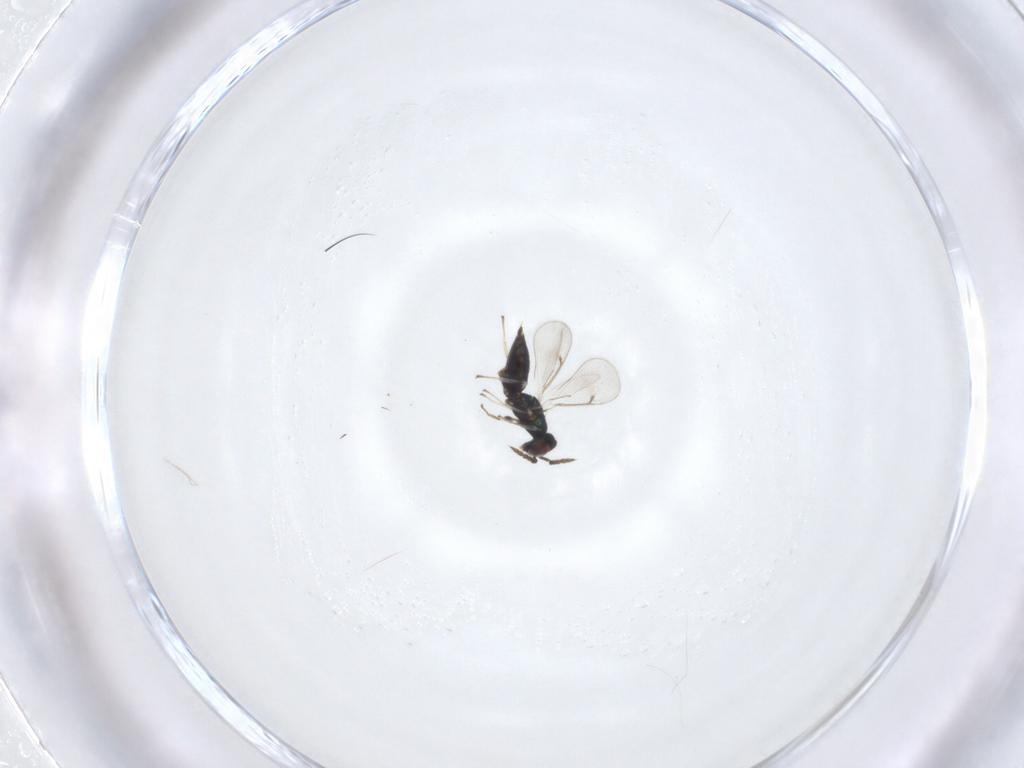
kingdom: Animalia
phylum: Arthropoda
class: Insecta
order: Hymenoptera
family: Eulophidae
